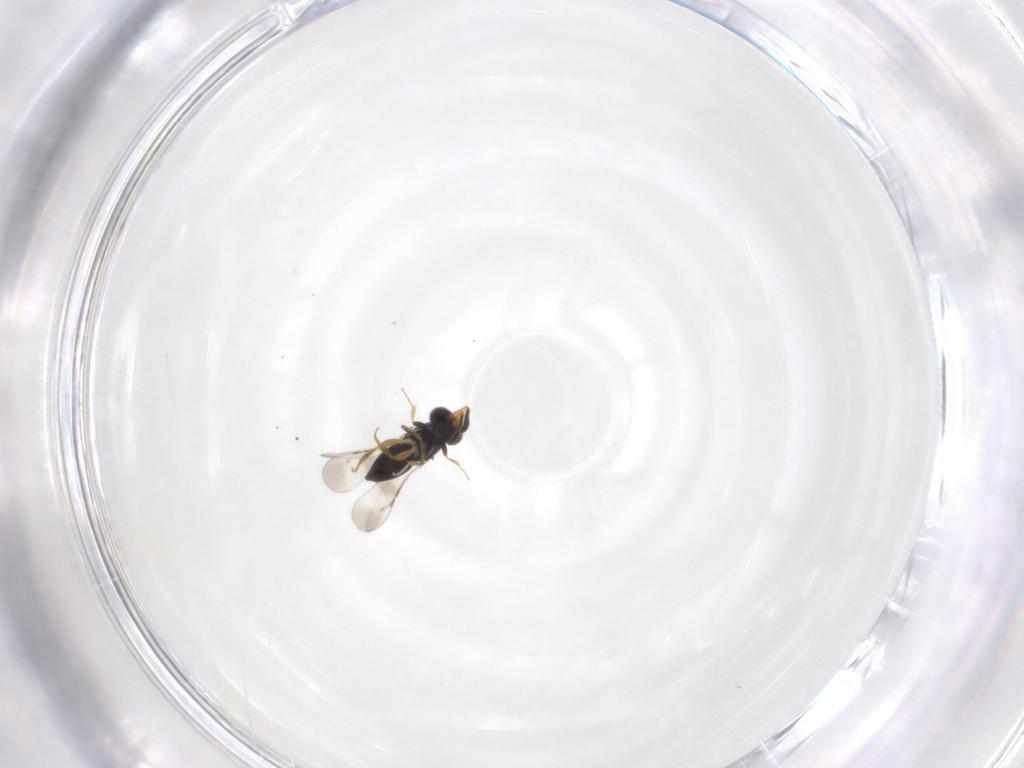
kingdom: Animalia
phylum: Arthropoda
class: Insecta
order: Hymenoptera
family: Ceraphronidae
